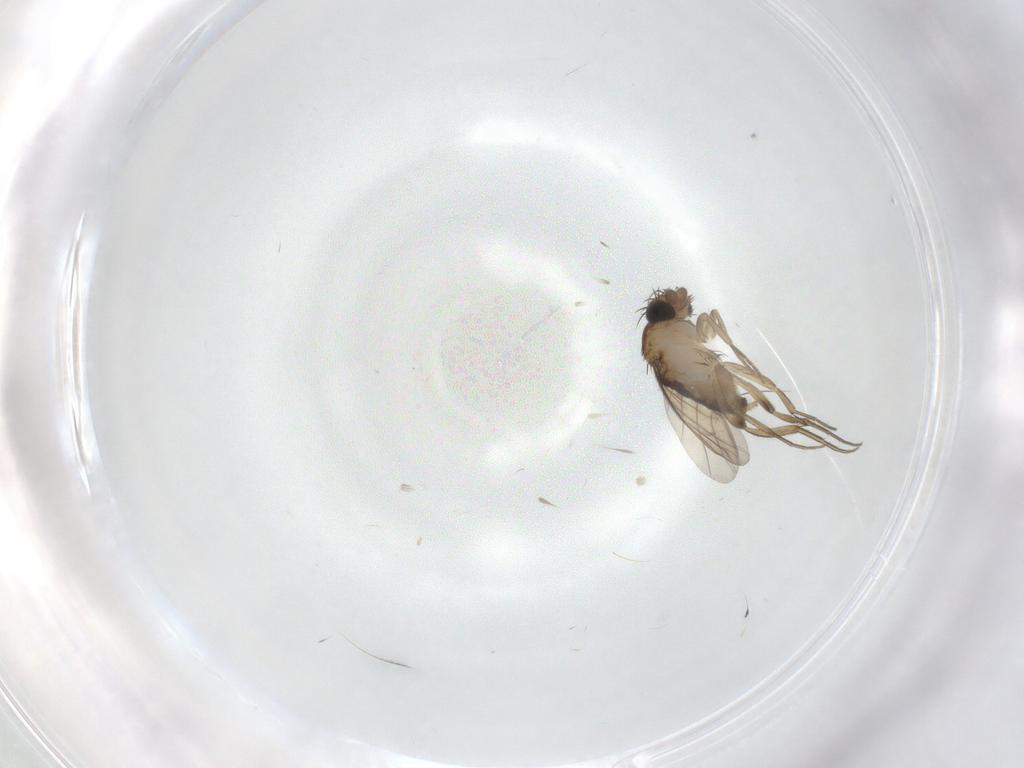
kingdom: Animalia
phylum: Arthropoda
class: Insecta
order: Diptera
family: Phoridae
